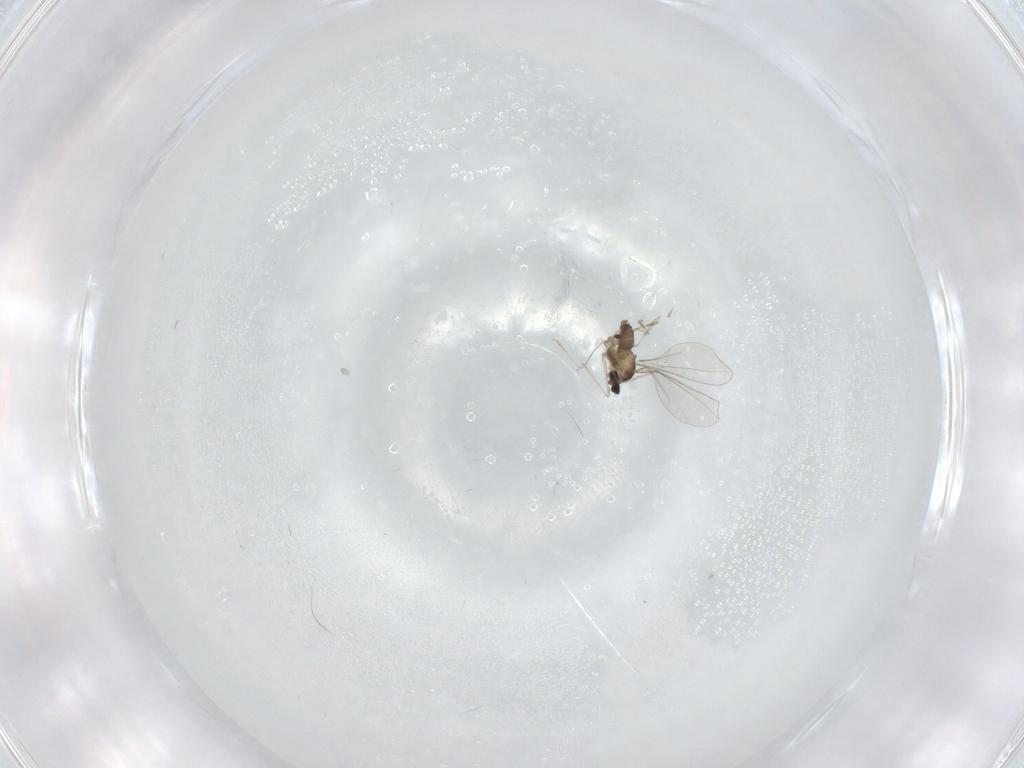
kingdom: Animalia
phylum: Arthropoda
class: Insecta
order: Diptera
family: Cecidomyiidae
